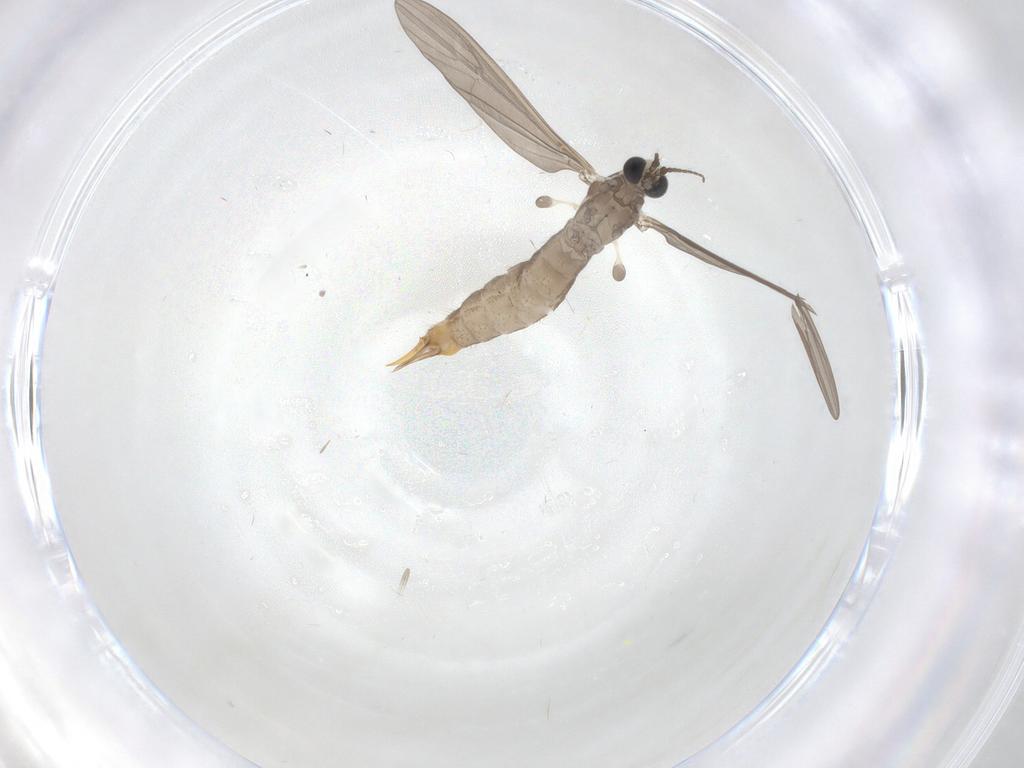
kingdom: Animalia
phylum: Arthropoda
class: Insecta
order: Diptera
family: Limoniidae
